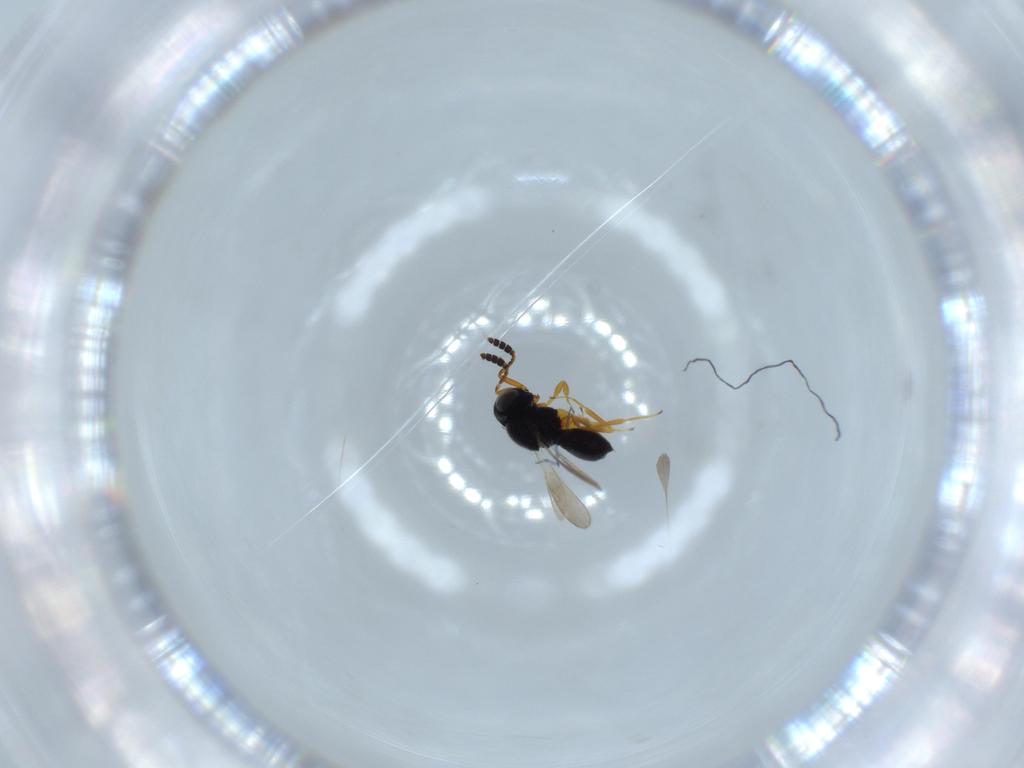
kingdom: Animalia
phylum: Arthropoda
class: Insecta
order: Hymenoptera
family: Scelionidae
